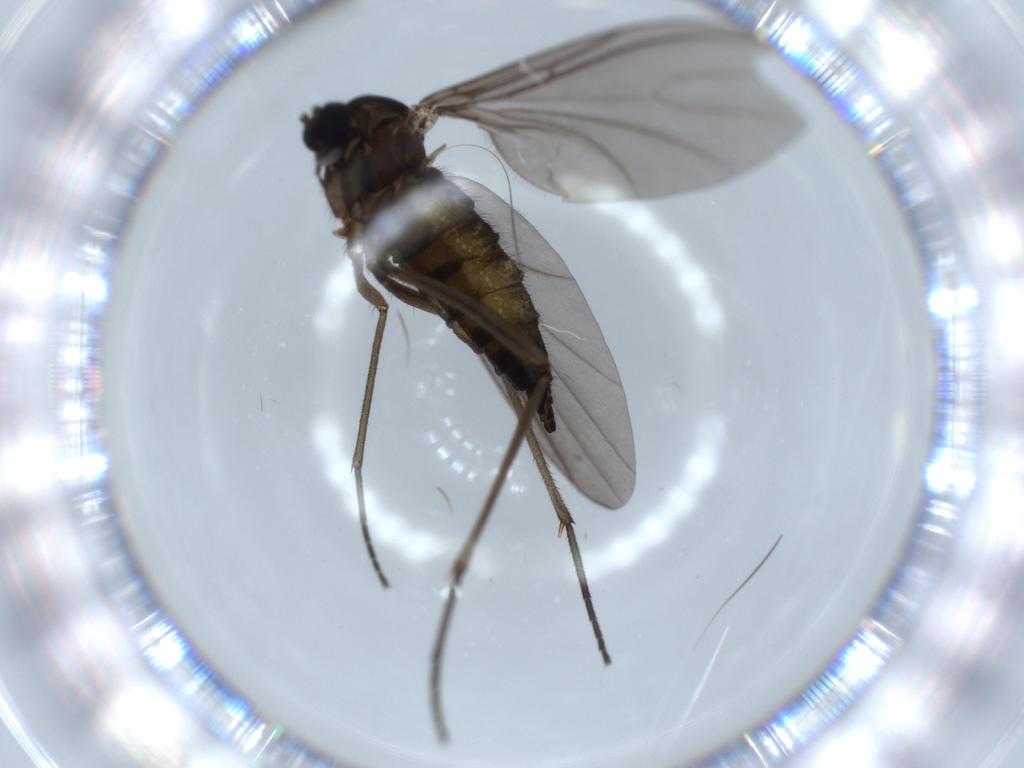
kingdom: Animalia
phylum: Arthropoda
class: Insecta
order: Diptera
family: Sciaridae
